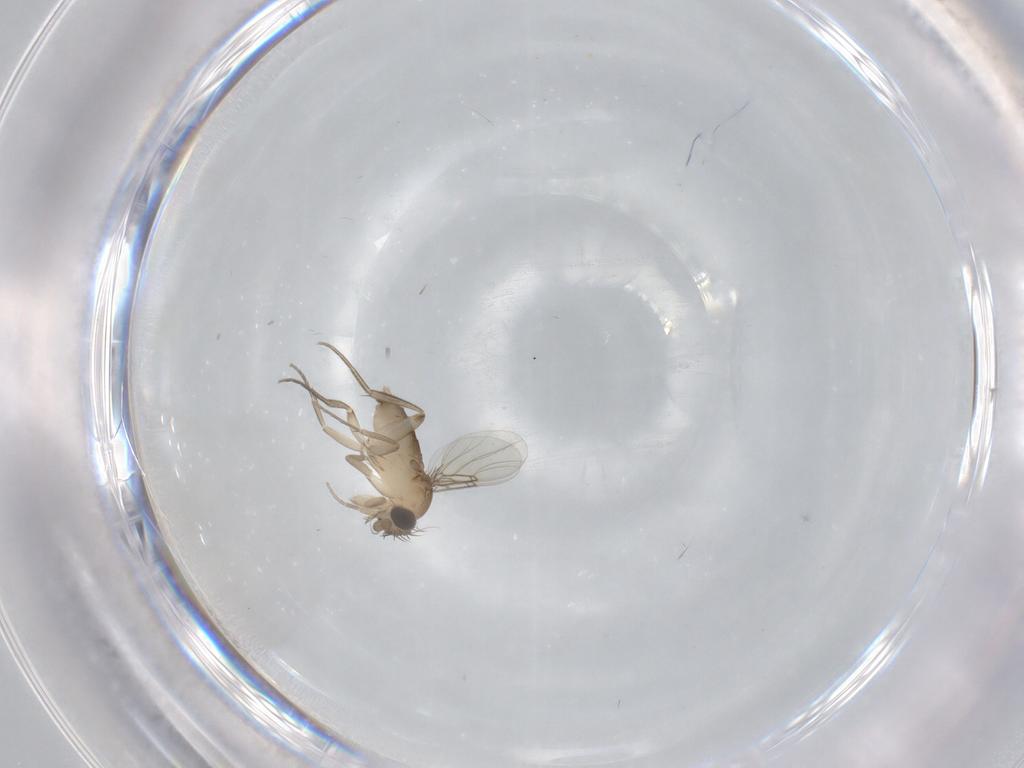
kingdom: Animalia
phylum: Arthropoda
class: Insecta
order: Diptera
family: Phoridae
